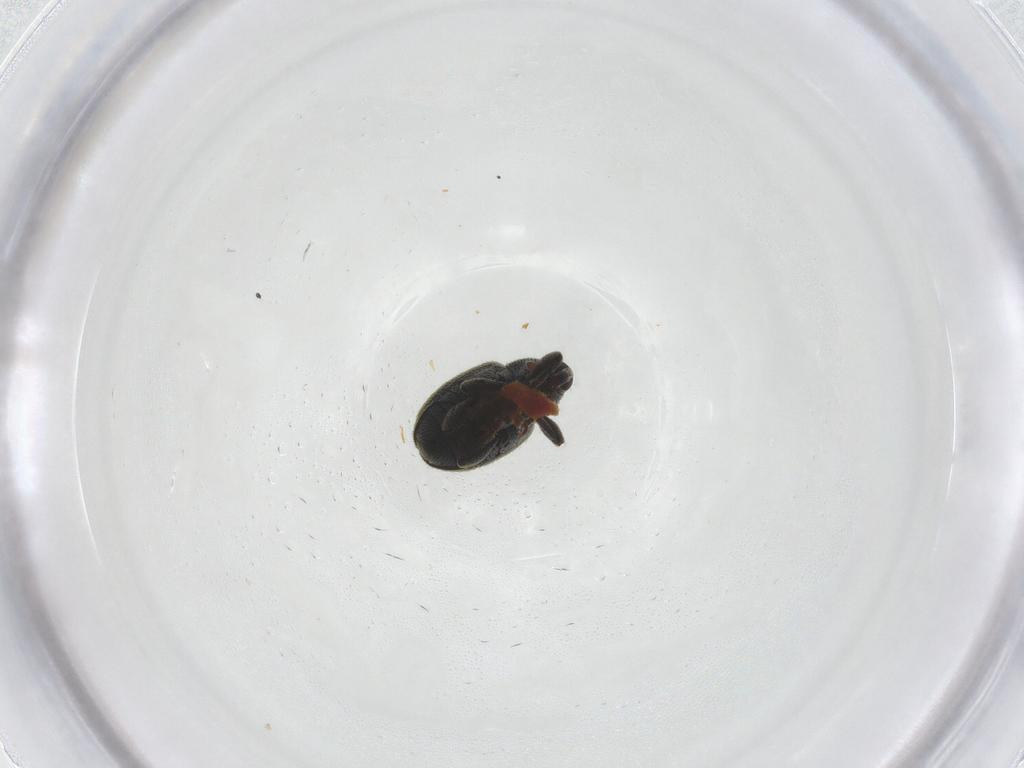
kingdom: Animalia
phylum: Arthropoda
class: Insecta
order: Coleoptera
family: Curculionidae
